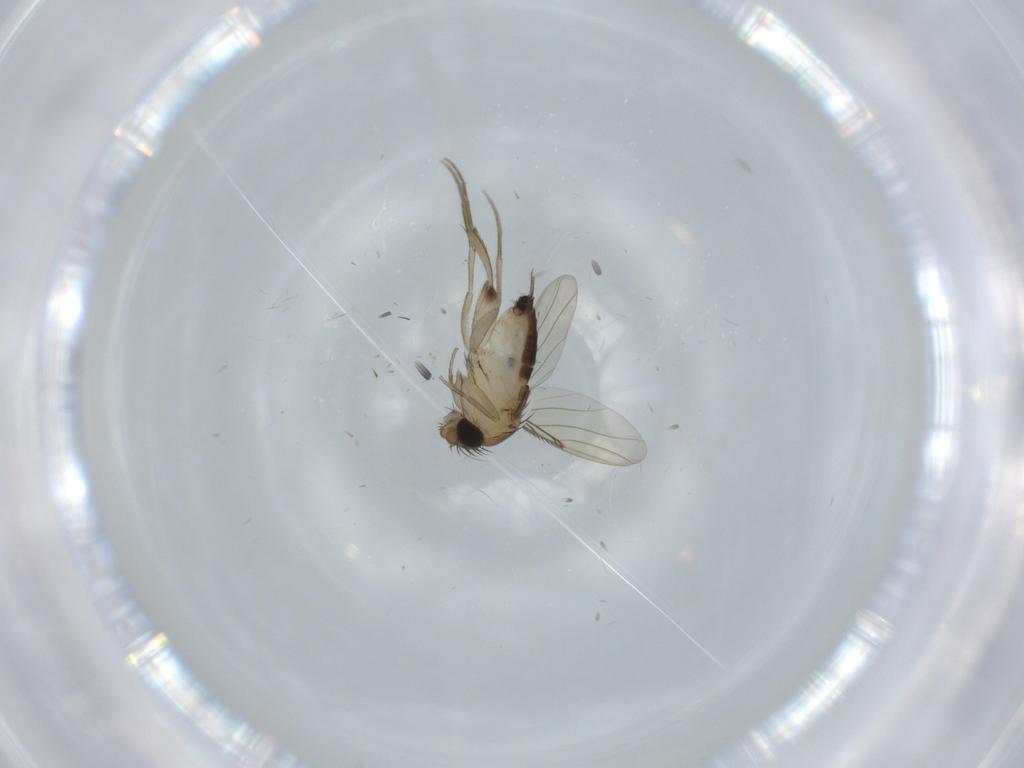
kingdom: Animalia
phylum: Arthropoda
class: Insecta
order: Diptera
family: Phoridae
